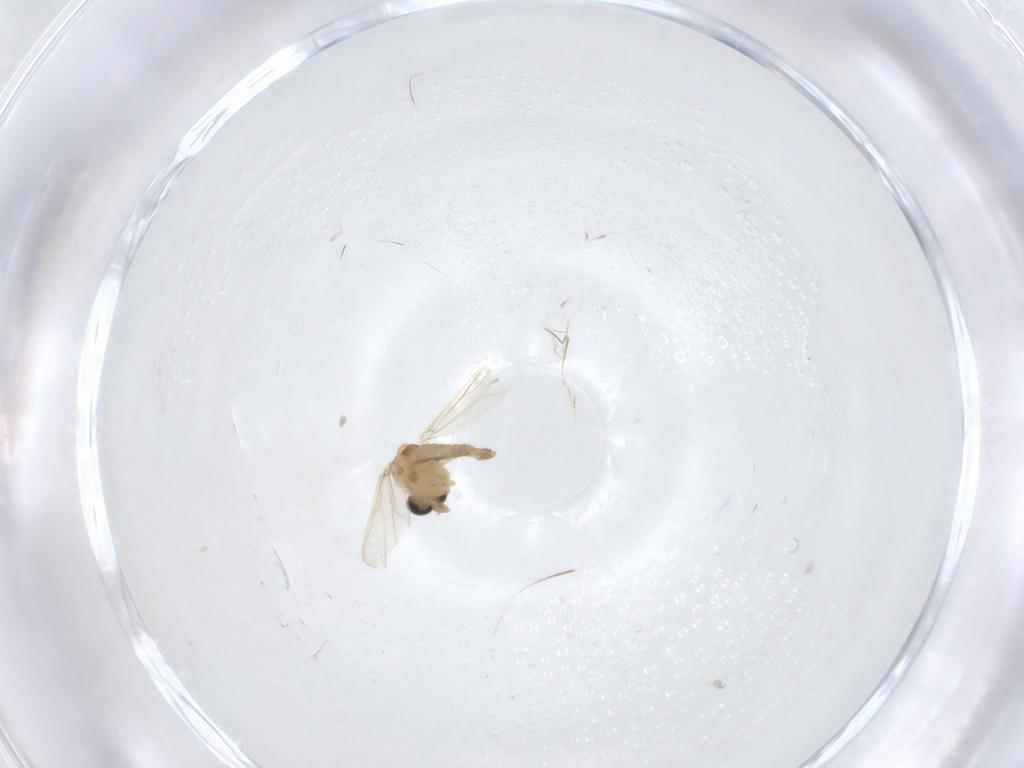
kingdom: Animalia
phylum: Arthropoda
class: Insecta
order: Diptera
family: Chironomidae
